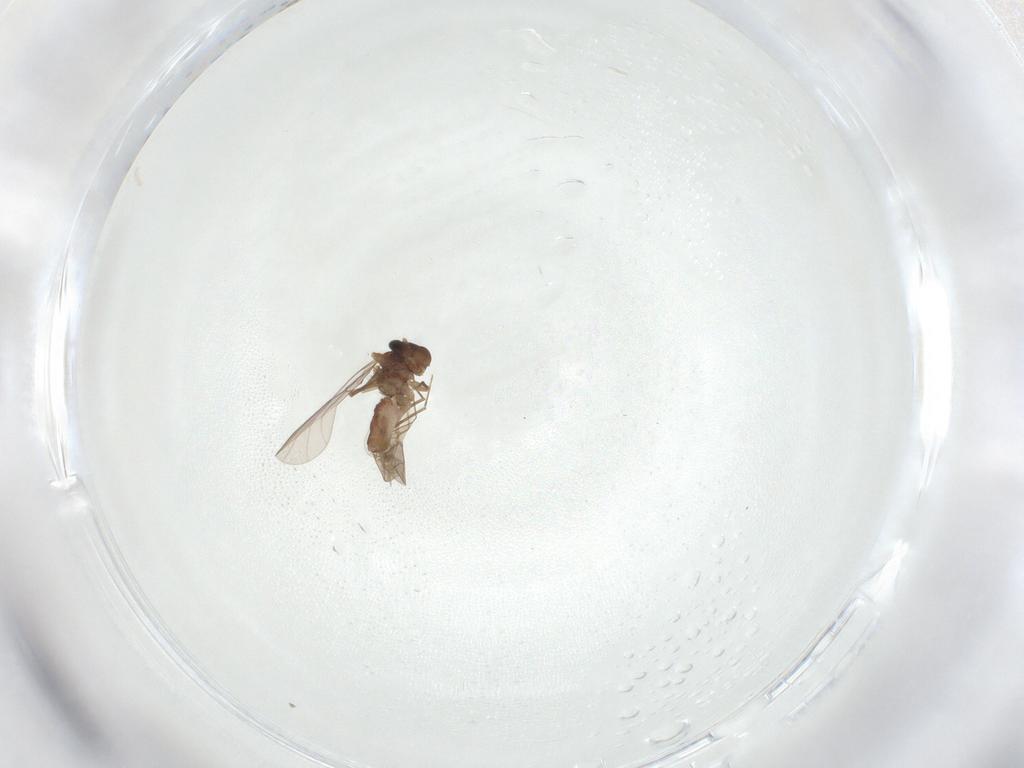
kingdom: Animalia
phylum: Arthropoda
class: Insecta
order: Psocodea
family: Lepidopsocidae
